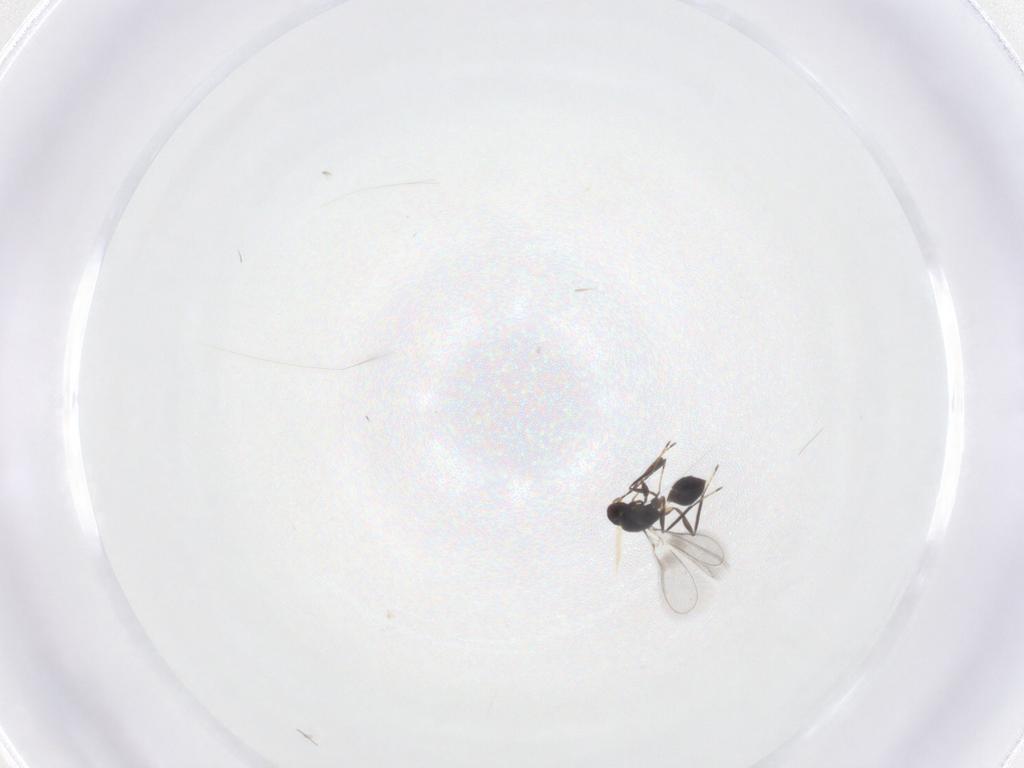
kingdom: Animalia
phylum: Arthropoda
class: Insecta
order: Hymenoptera
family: Mymaridae
